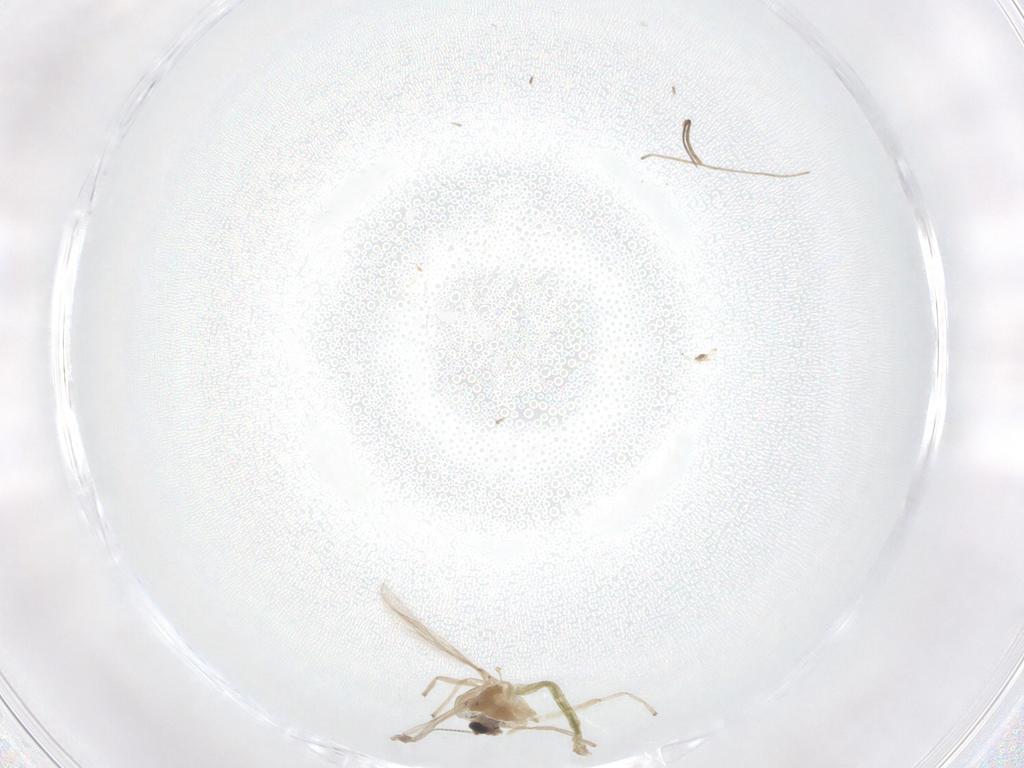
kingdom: Animalia
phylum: Arthropoda
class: Insecta
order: Diptera
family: Chironomidae
